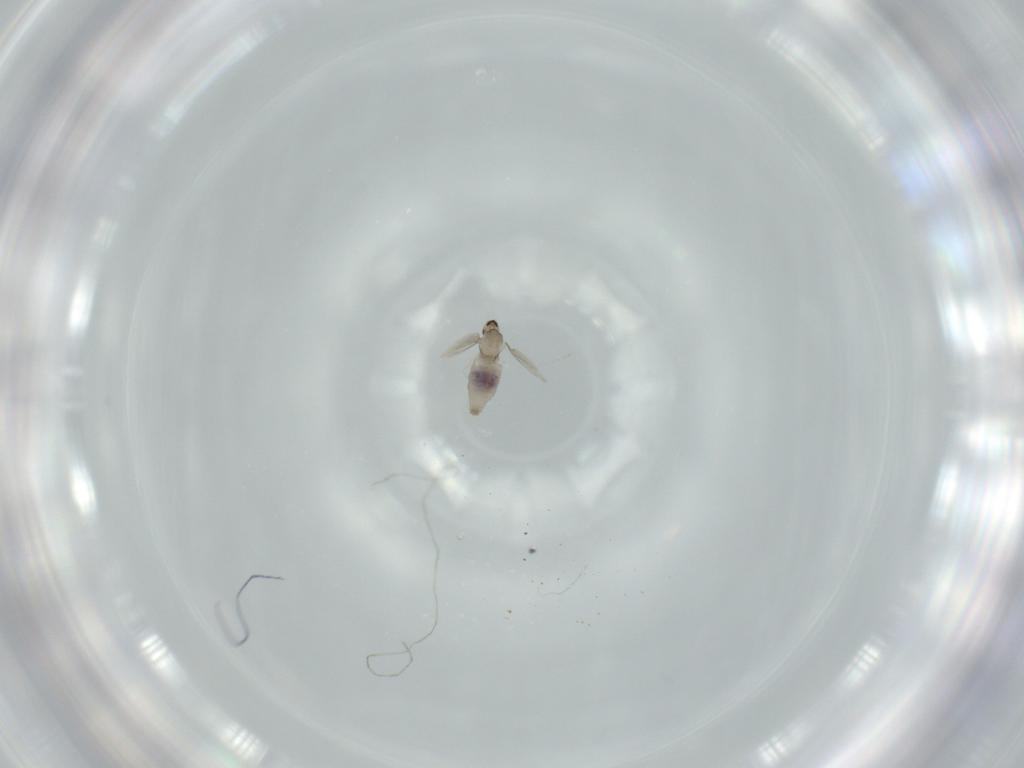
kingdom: Animalia
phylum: Arthropoda
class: Insecta
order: Diptera
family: Cecidomyiidae
